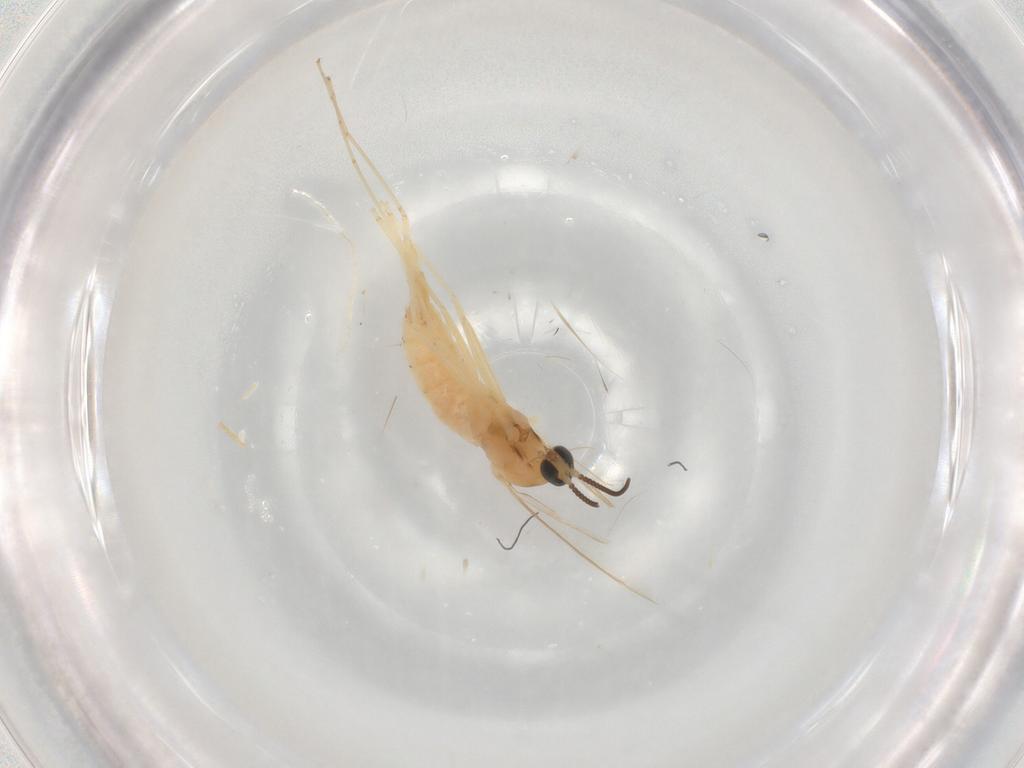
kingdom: Animalia
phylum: Arthropoda
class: Insecta
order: Diptera
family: Cecidomyiidae
